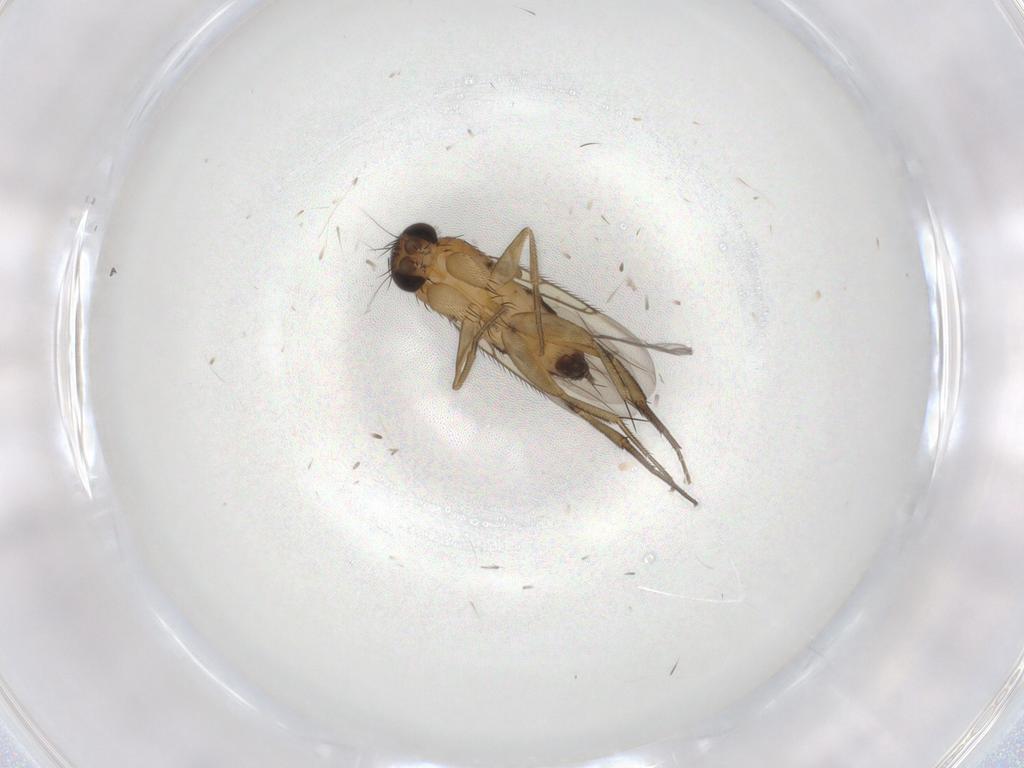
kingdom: Animalia
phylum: Arthropoda
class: Insecta
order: Diptera
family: Phoridae
